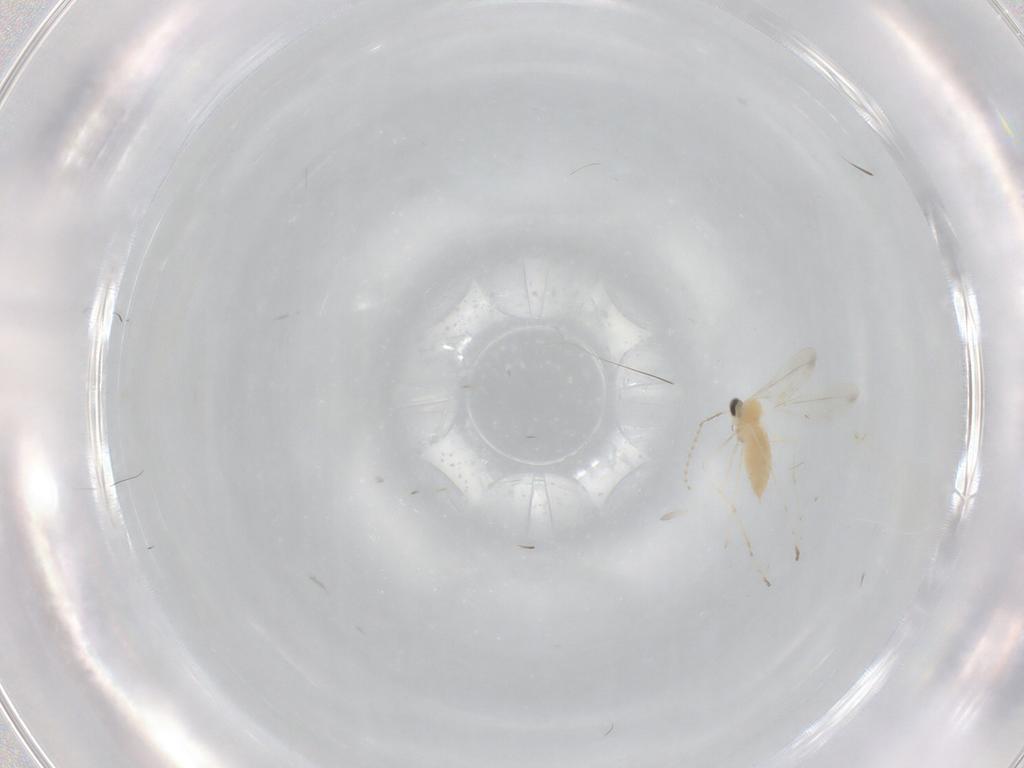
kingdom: Animalia
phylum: Arthropoda
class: Insecta
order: Diptera
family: Cecidomyiidae
